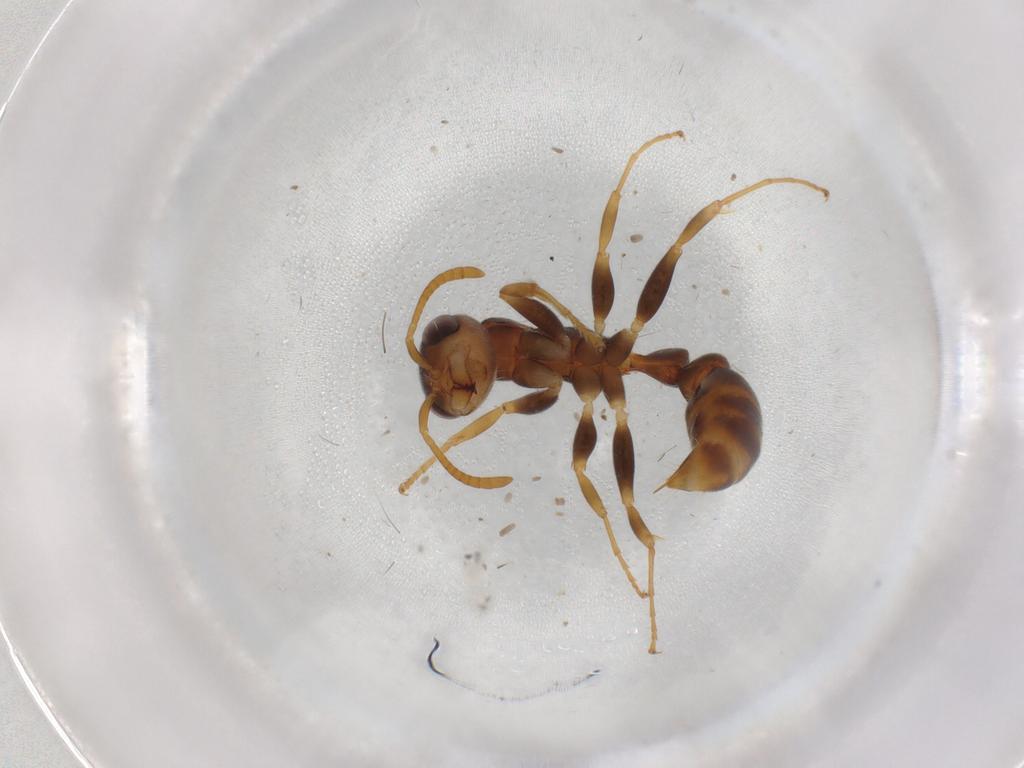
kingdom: Animalia
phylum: Arthropoda
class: Insecta
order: Hymenoptera
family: Formicidae
